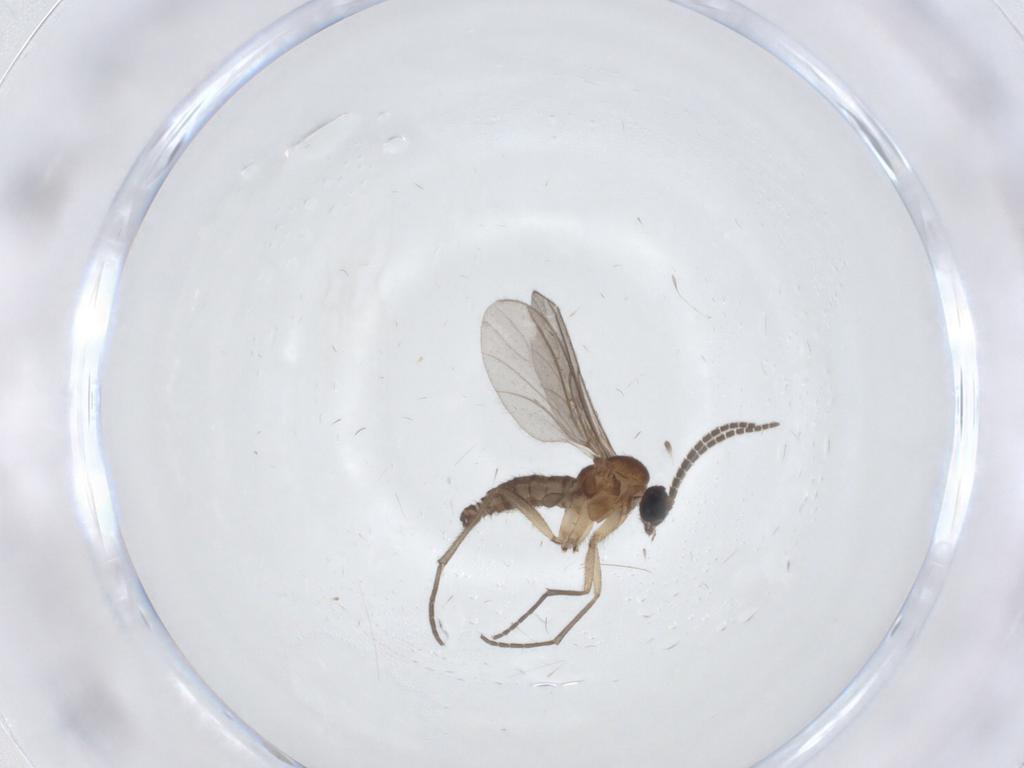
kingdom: Animalia
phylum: Arthropoda
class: Insecta
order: Diptera
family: Sciaridae
